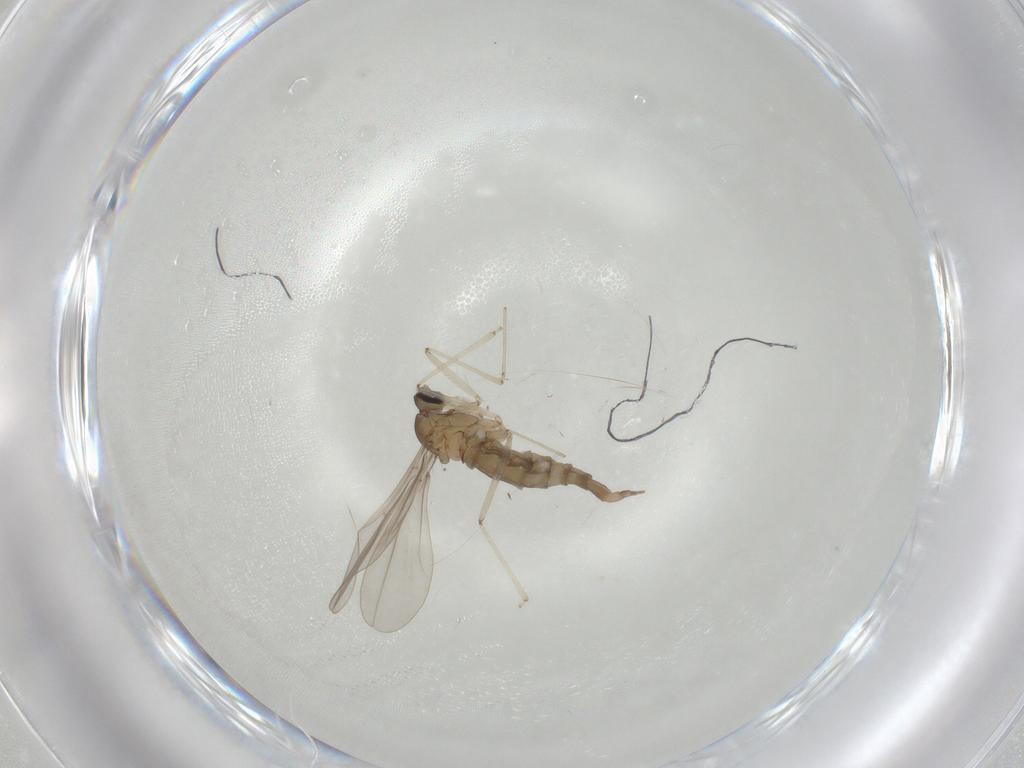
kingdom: Animalia
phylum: Arthropoda
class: Insecta
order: Diptera
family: Cecidomyiidae
